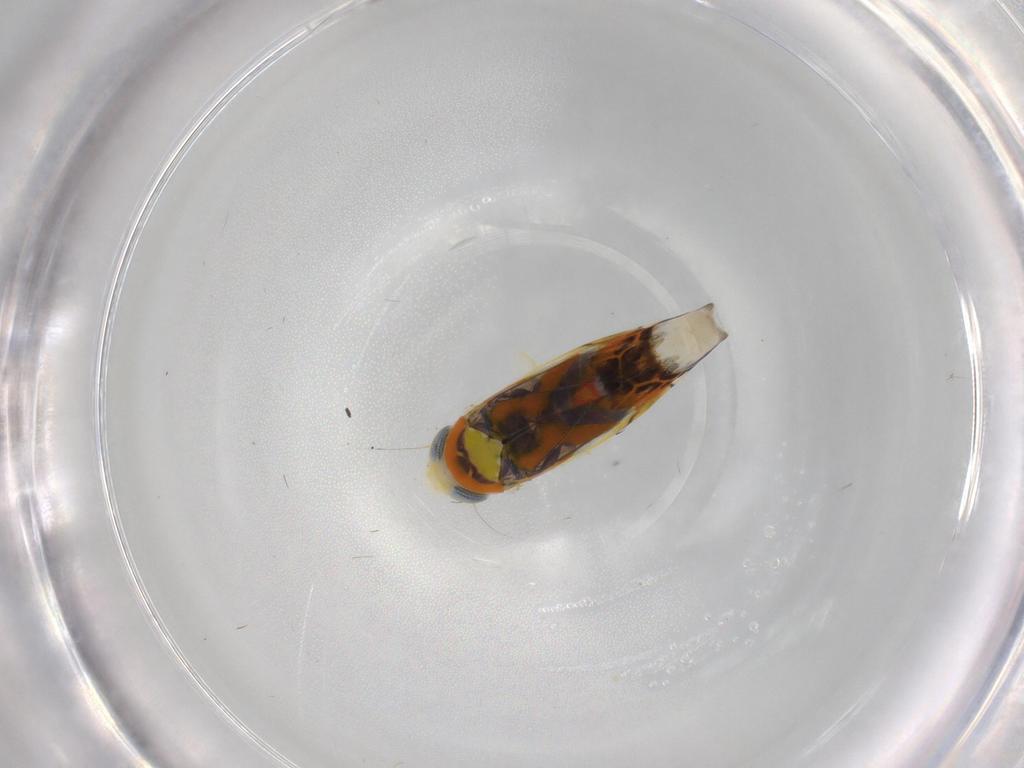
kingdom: Animalia
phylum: Arthropoda
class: Insecta
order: Hemiptera
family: Cicadellidae
